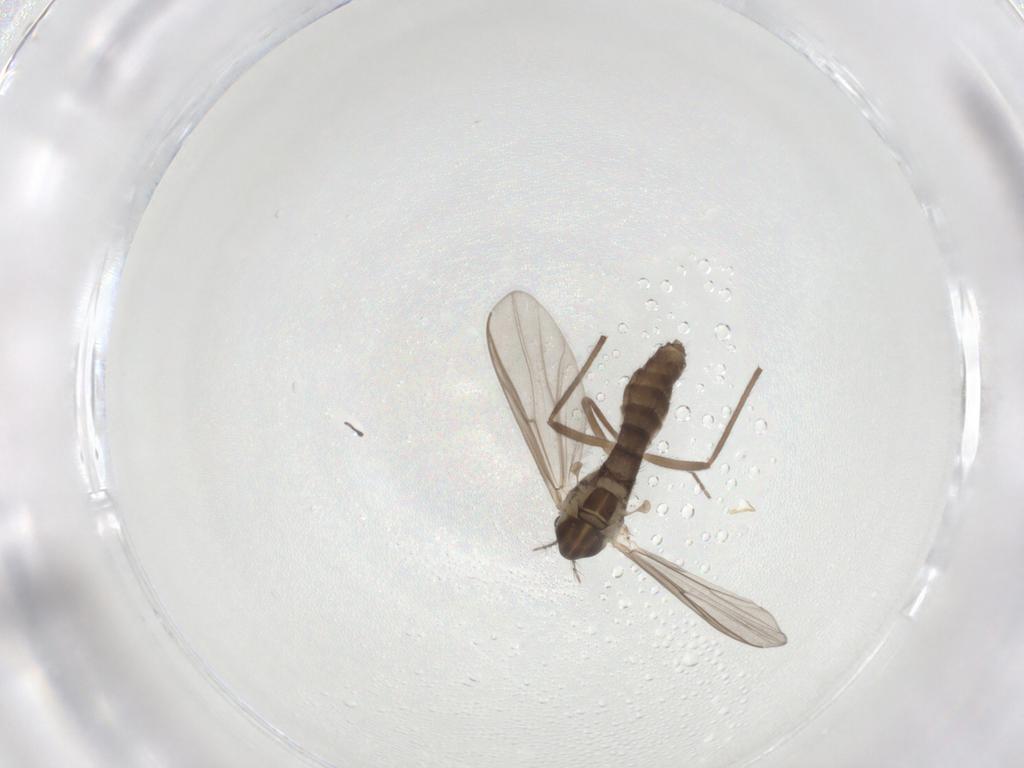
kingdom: Animalia
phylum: Arthropoda
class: Insecta
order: Diptera
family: Chironomidae
